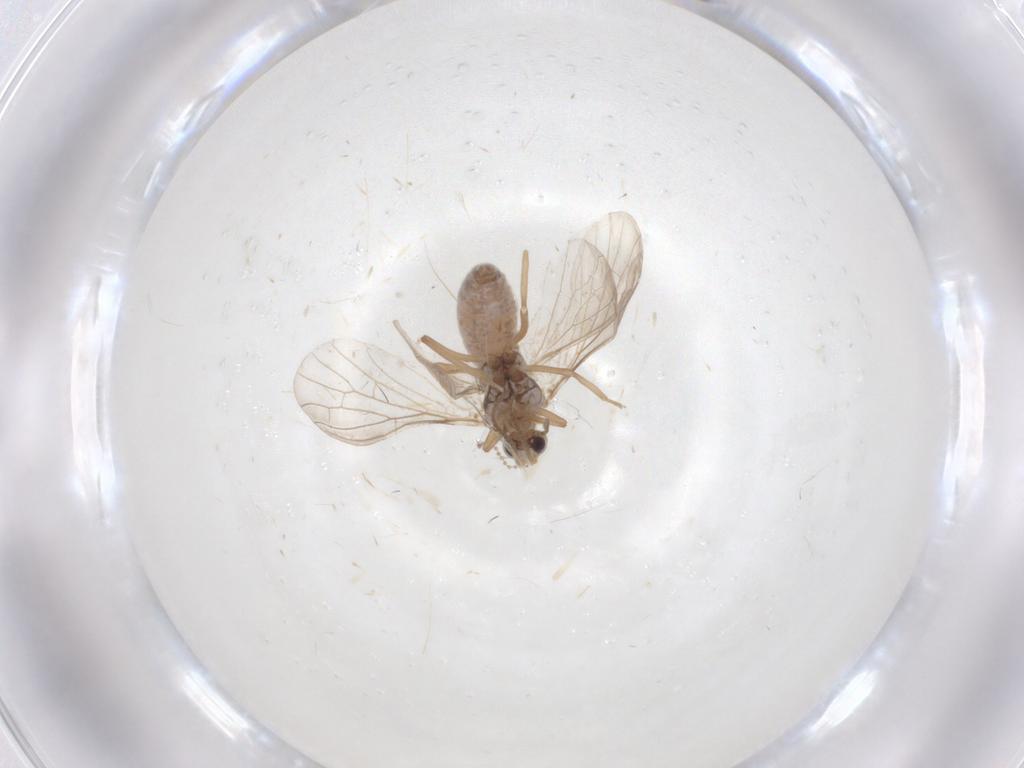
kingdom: Animalia
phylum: Arthropoda
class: Insecta
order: Neuroptera
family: Coniopterygidae
